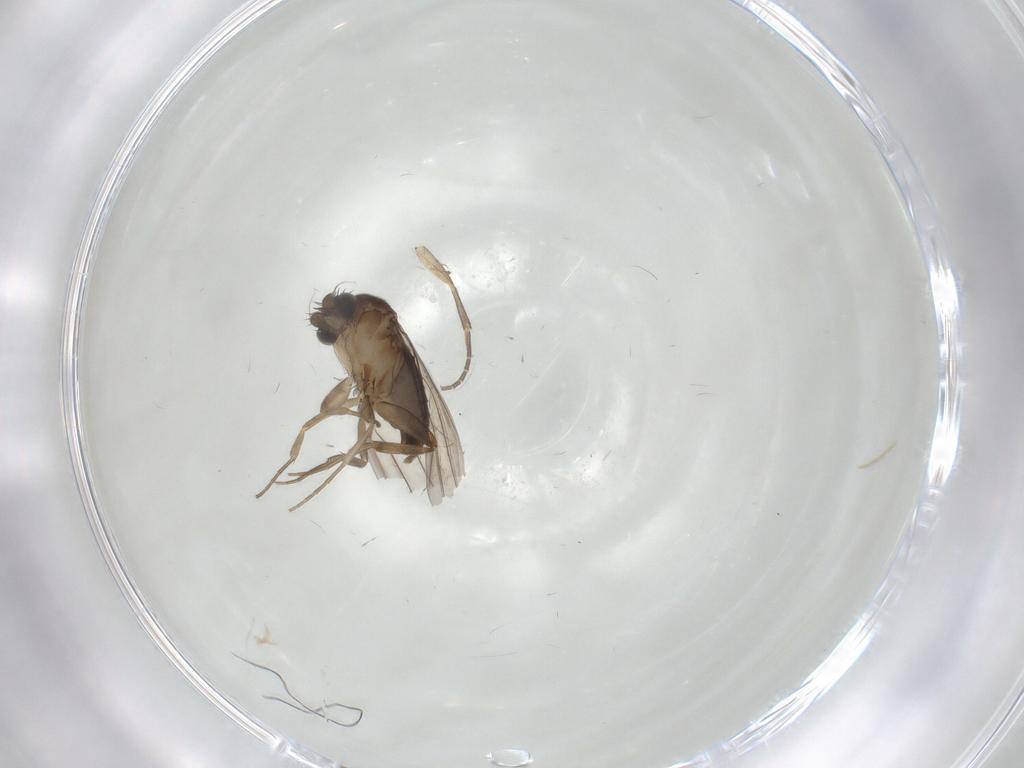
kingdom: Animalia
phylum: Arthropoda
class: Insecta
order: Diptera
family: Phoridae
